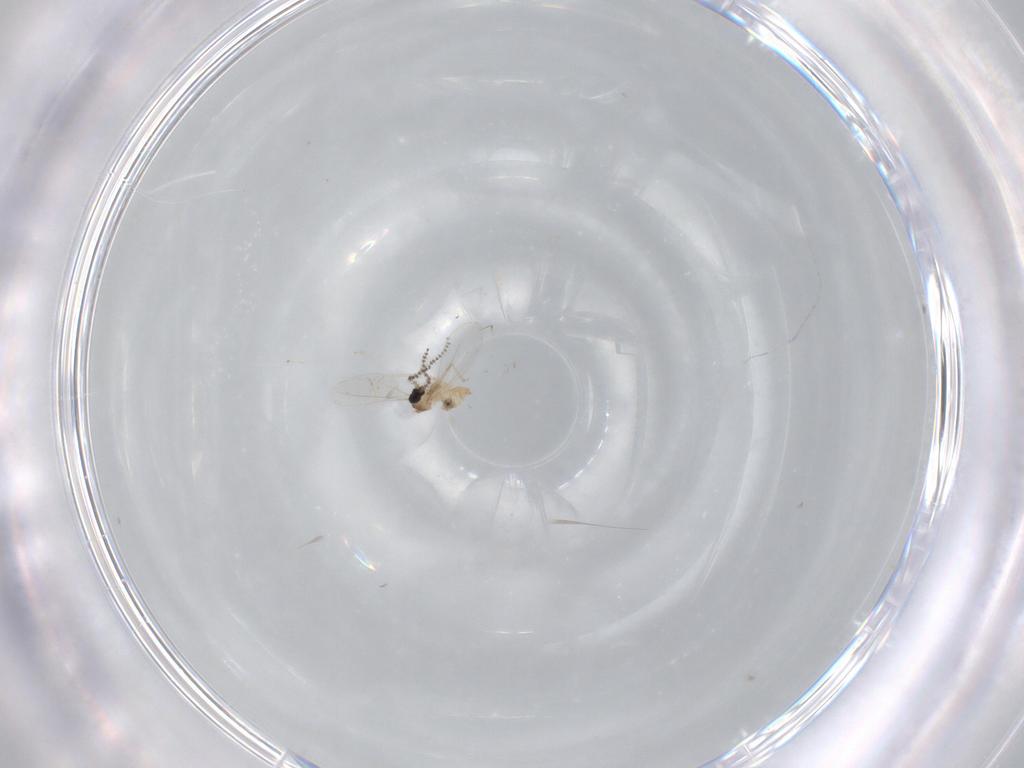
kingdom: Animalia
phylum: Arthropoda
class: Insecta
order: Diptera
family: Cecidomyiidae
